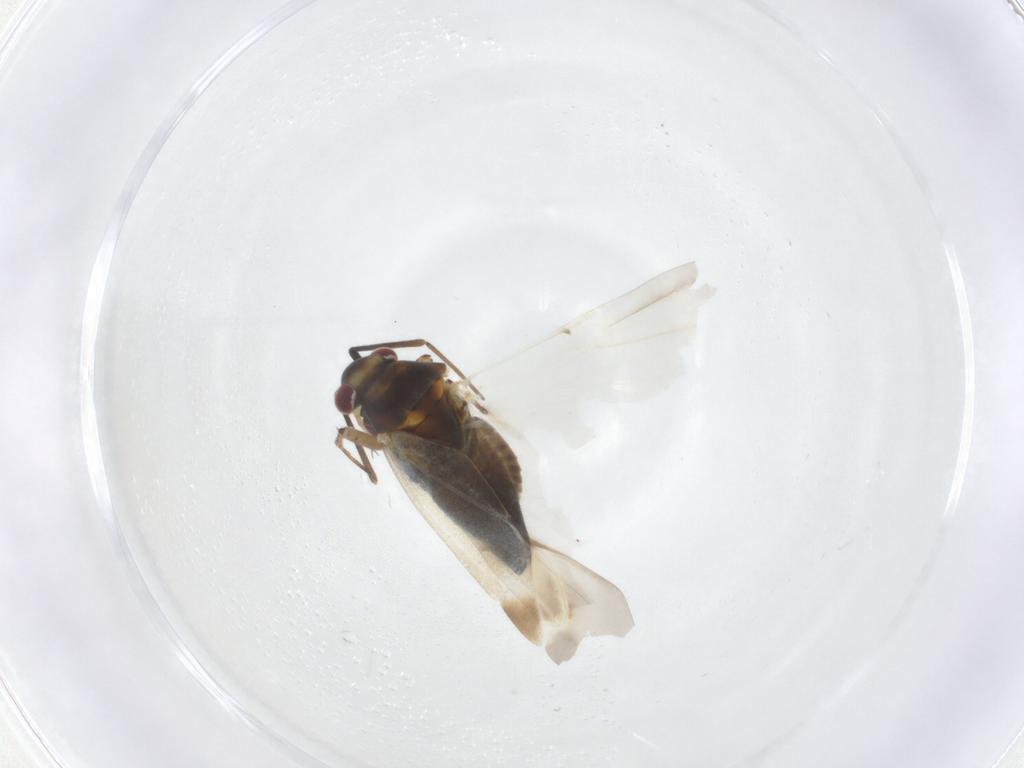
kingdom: Animalia
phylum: Arthropoda
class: Insecta
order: Hemiptera
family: Miridae
